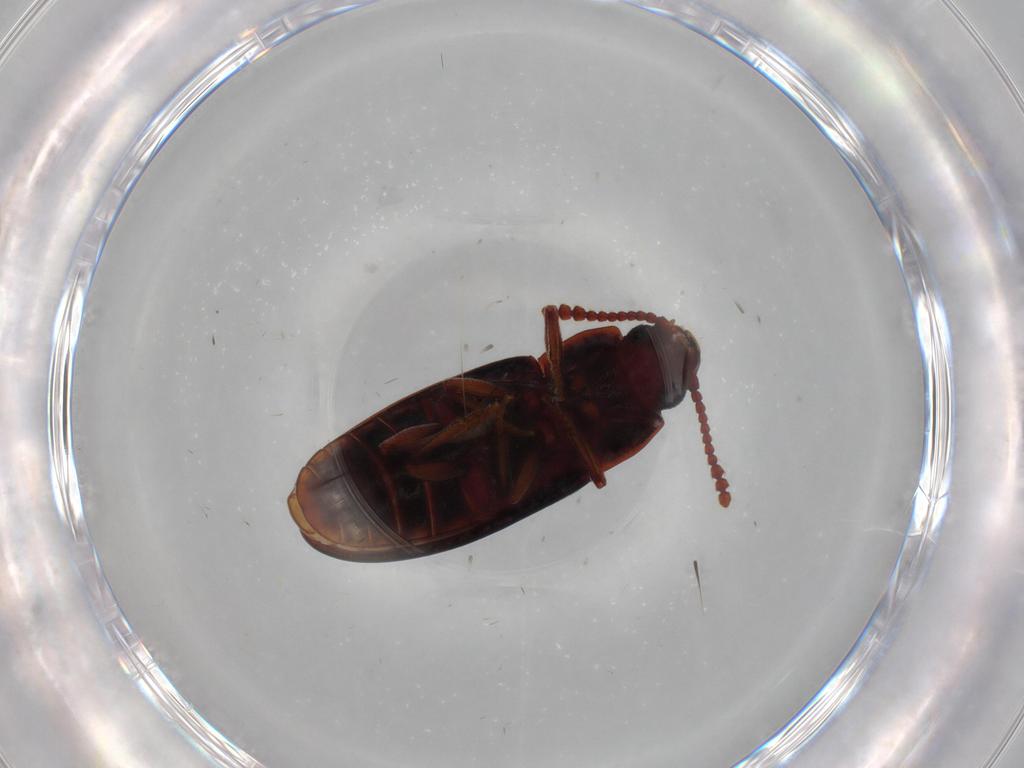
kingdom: Animalia
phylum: Arthropoda
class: Insecta
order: Coleoptera
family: Erotylidae
